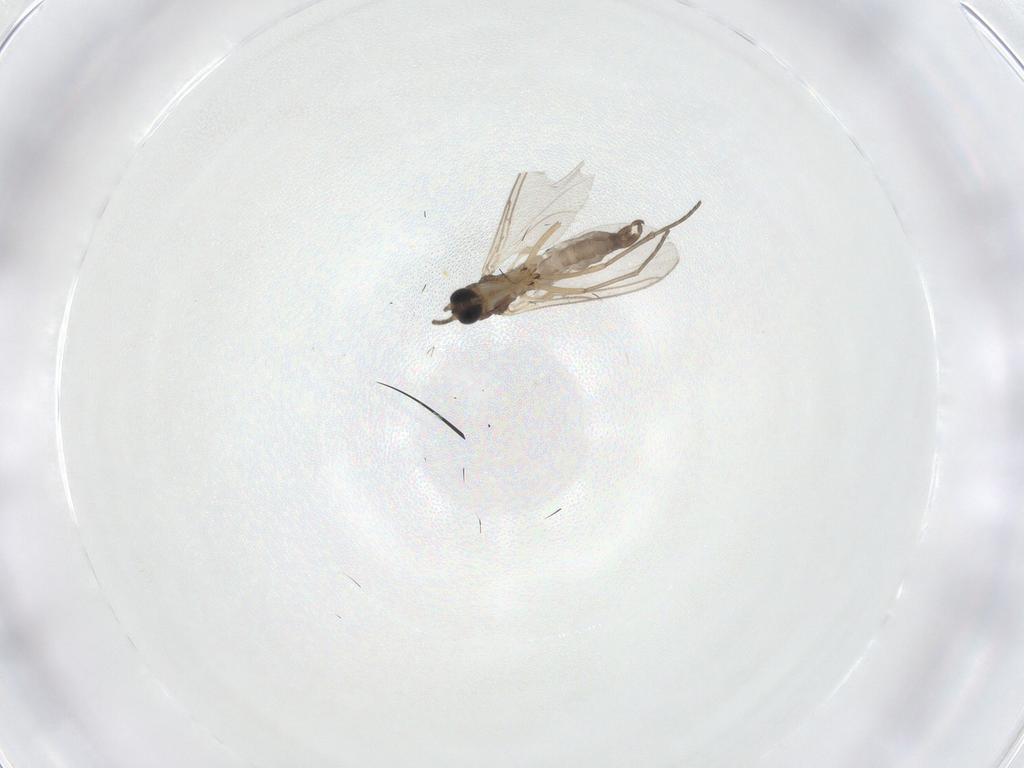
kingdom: Animalia
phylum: Arthropoda
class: Insecta
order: Diptera
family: Sciaridae
